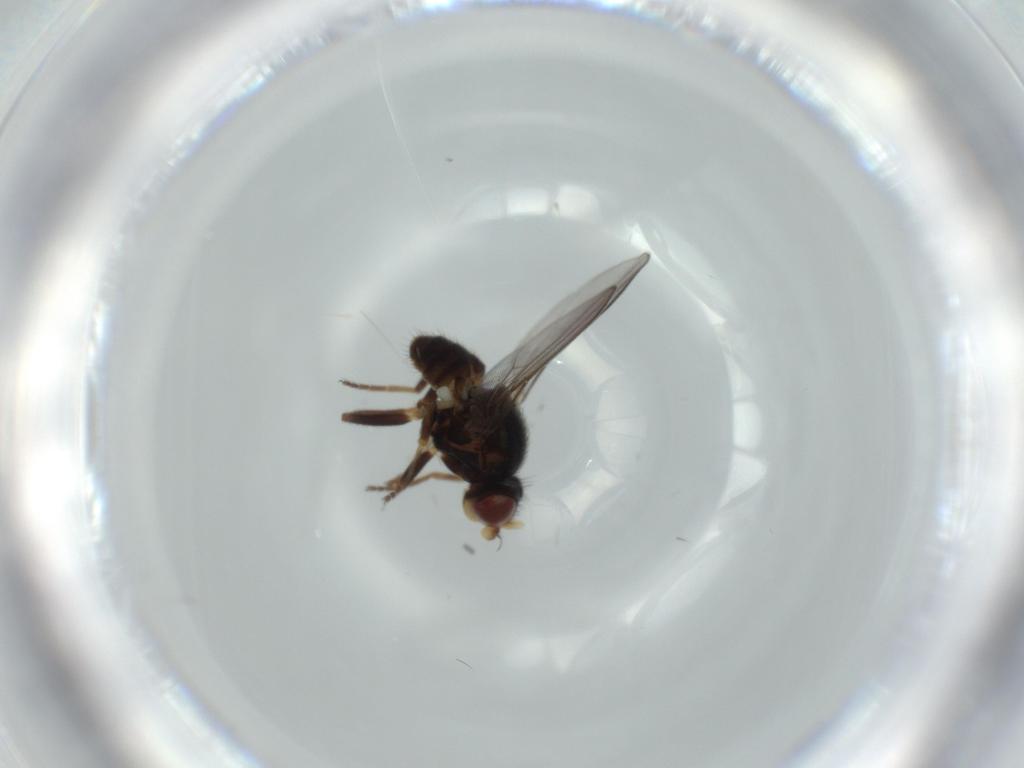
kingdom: Animalia
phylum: Arthropoda
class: Insecta
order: Diptera
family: Chloropidae
